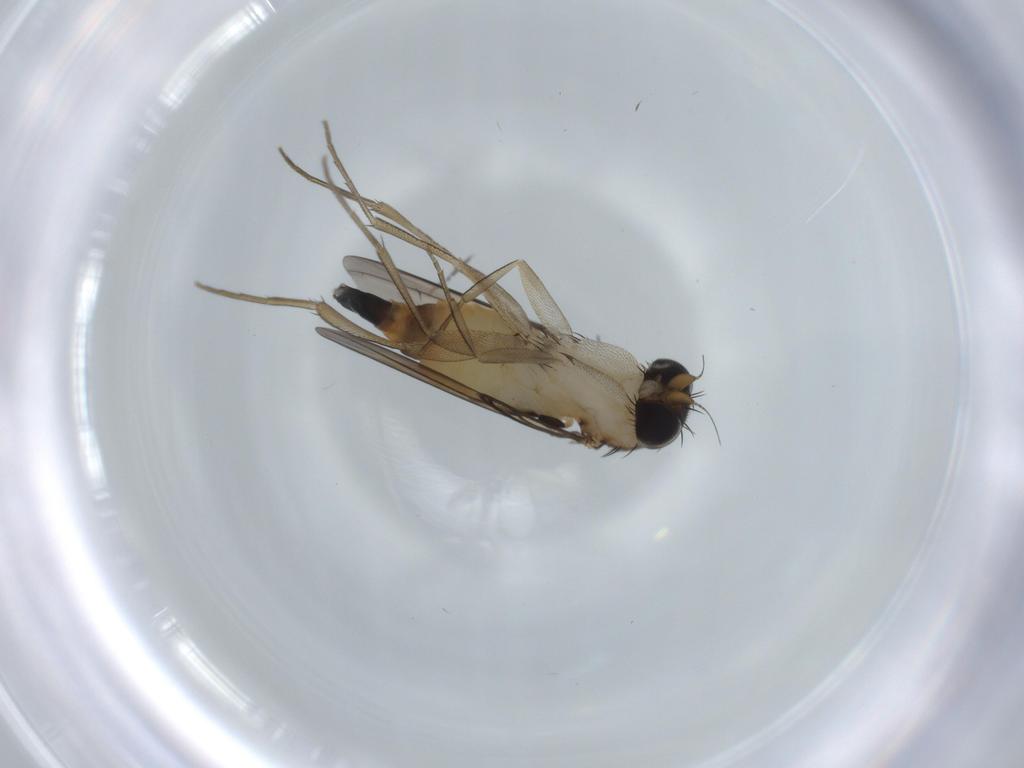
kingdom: Animalia
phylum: Arthropoda
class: Insecta
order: Diptera
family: Phoridae
